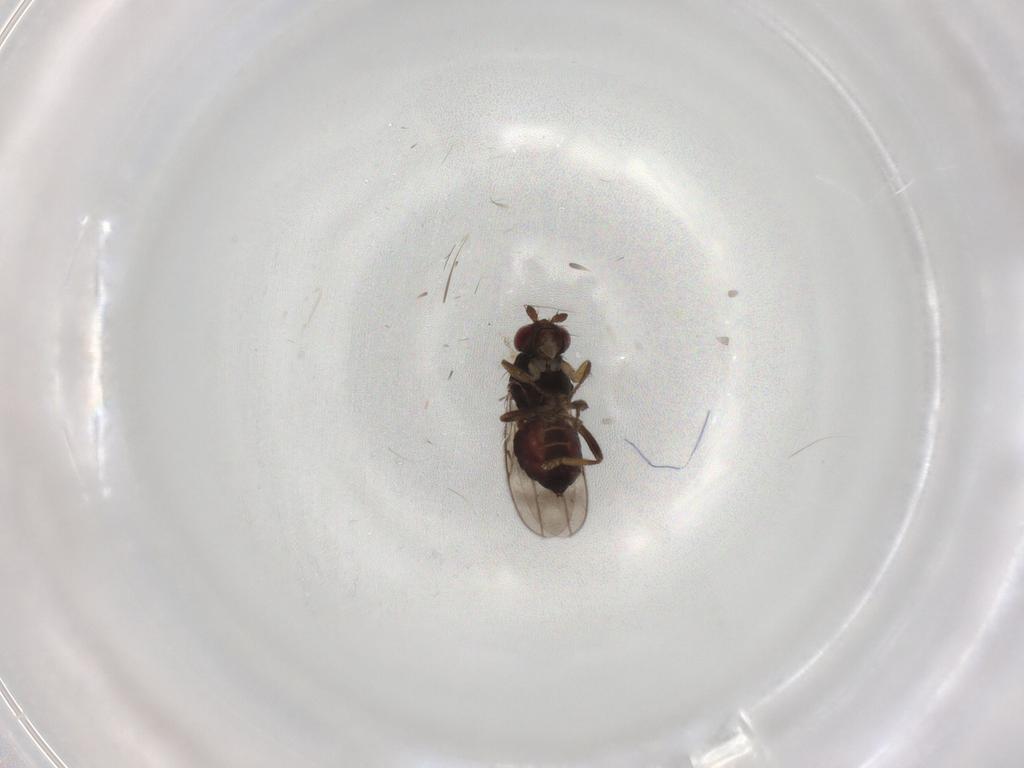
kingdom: Animalia
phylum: Arthropoda
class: Insecta
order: Diptera
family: Sphaeroceridae
